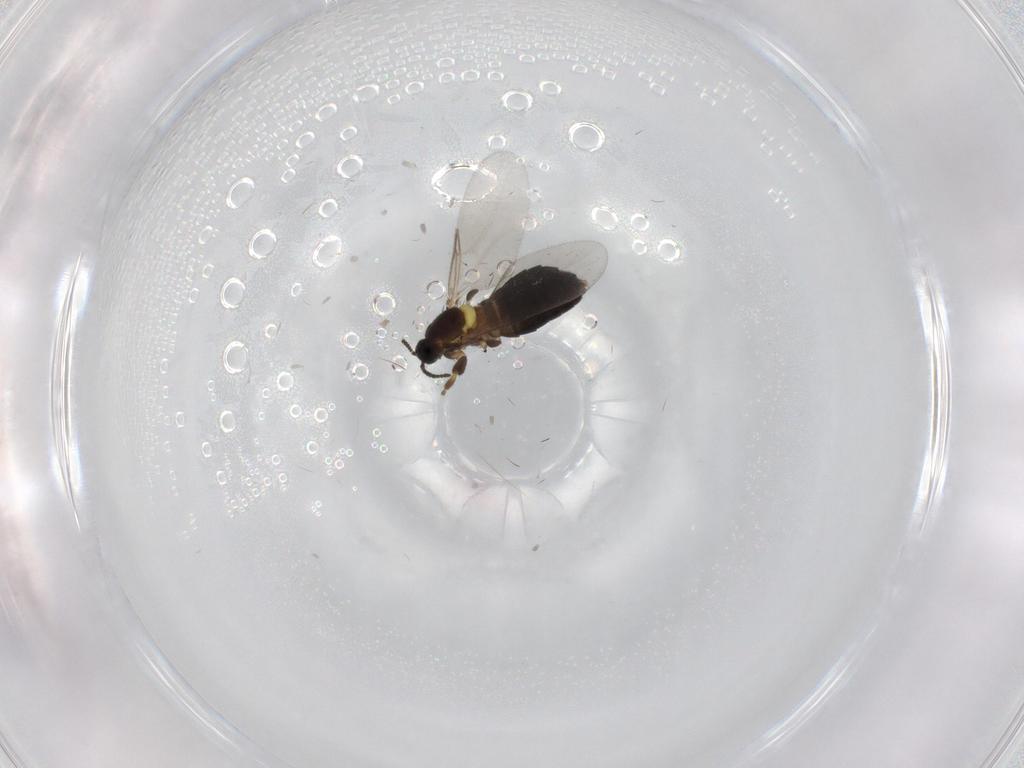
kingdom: Animalia
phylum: Arthropoda
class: Insecta
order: Diptera
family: Scatopsidae
